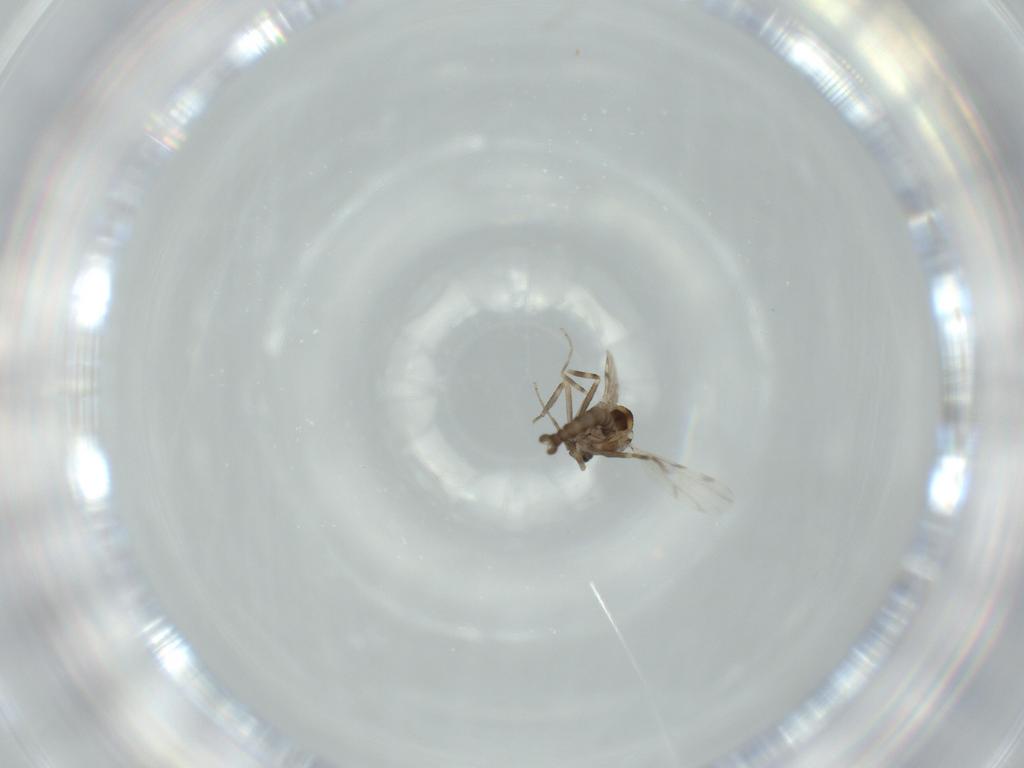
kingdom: Animalia
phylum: Arthropoda
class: Insecta
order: Diptera
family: Ceratopogonidae
